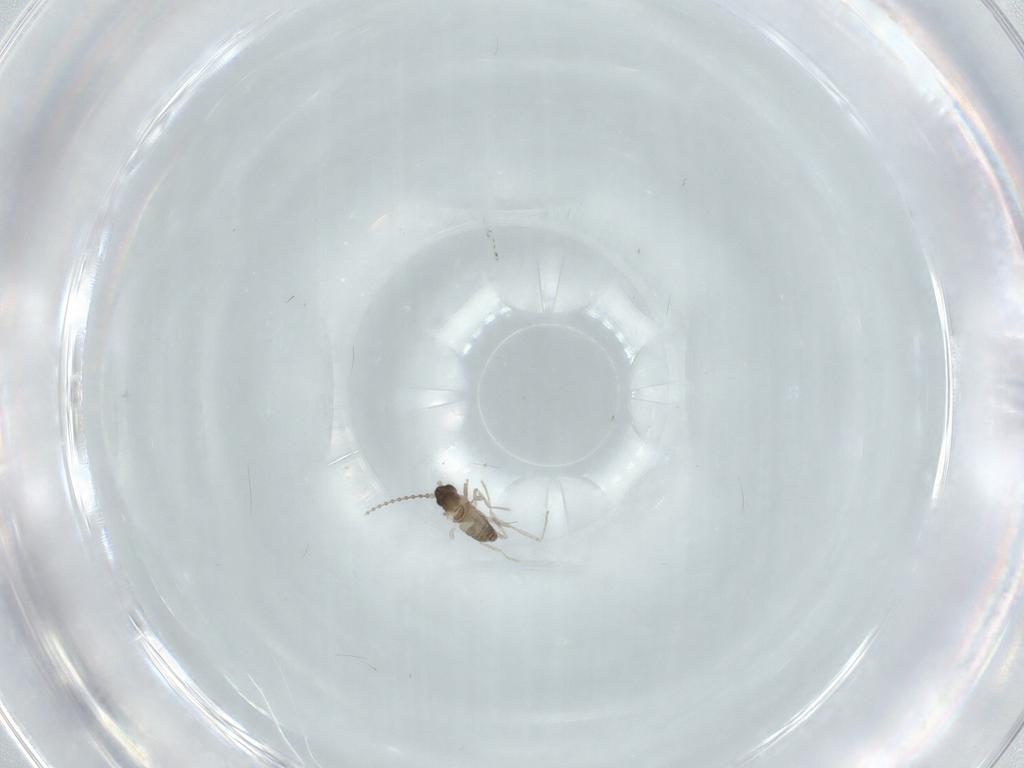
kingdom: Animalia
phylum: Arthropoda
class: Insecta
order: Diptera
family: Cecidomyiidae
